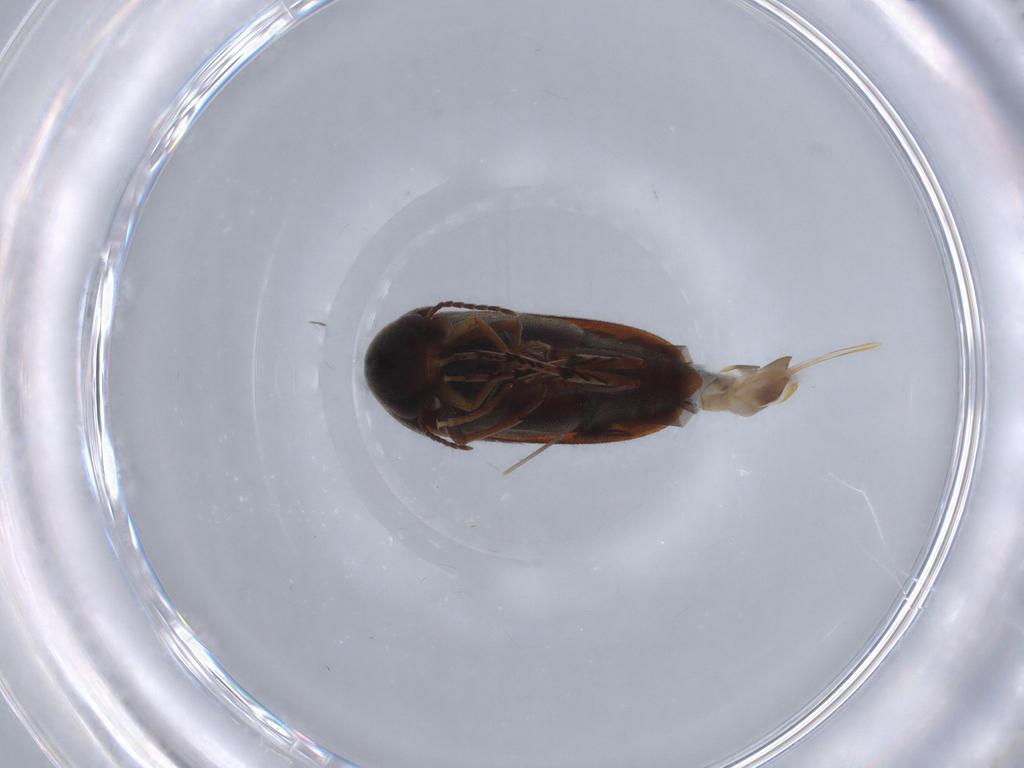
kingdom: Animalia
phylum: Arthropoda
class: Insecta
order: Coleoptera
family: Mordellidae
